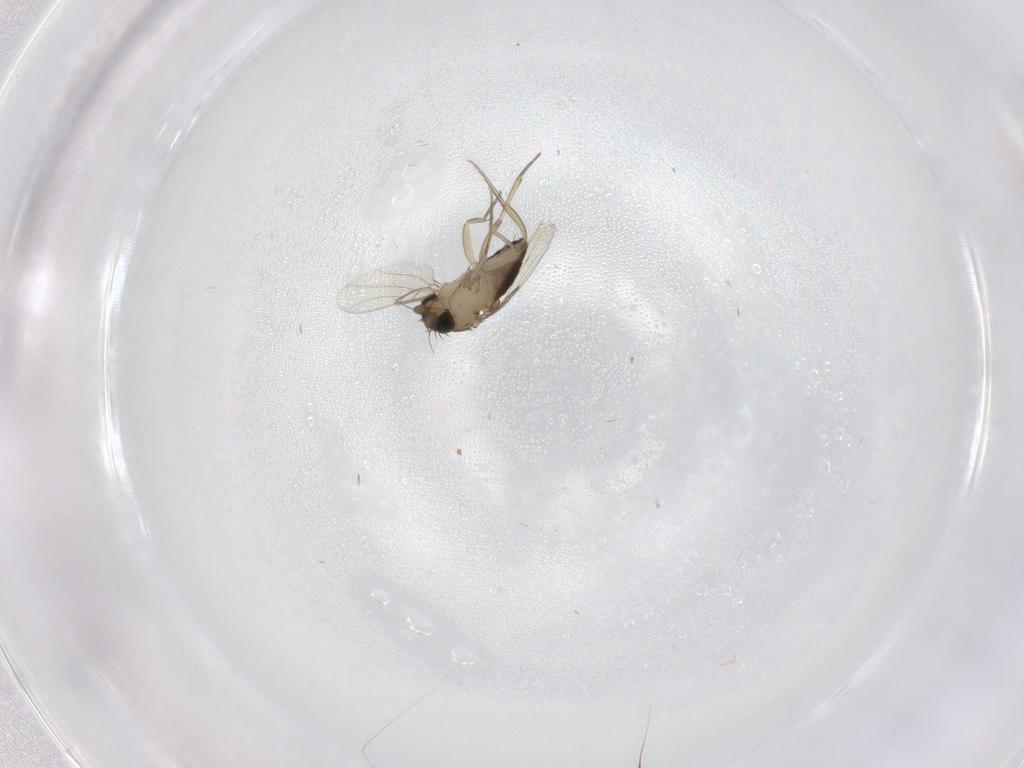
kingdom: Animalia
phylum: Arthropoda
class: Insecta
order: Diptera
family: Phoridae
